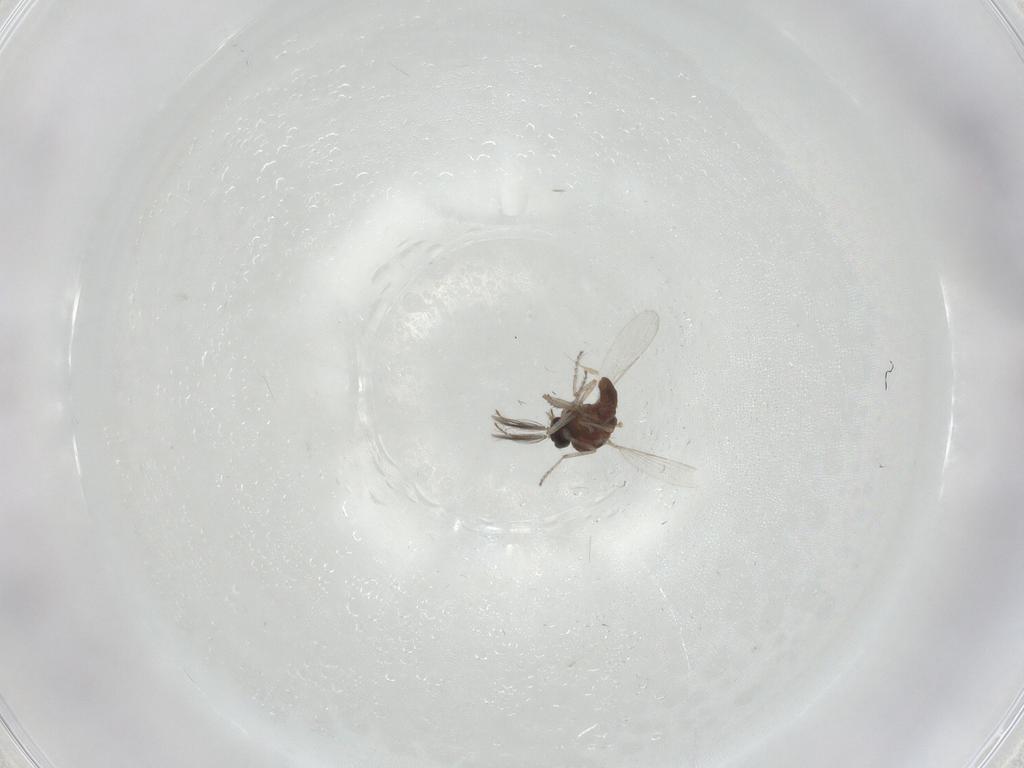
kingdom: Animalia
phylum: Arthropoda
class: Insecta
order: Diptera
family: Ceratopogonidae
